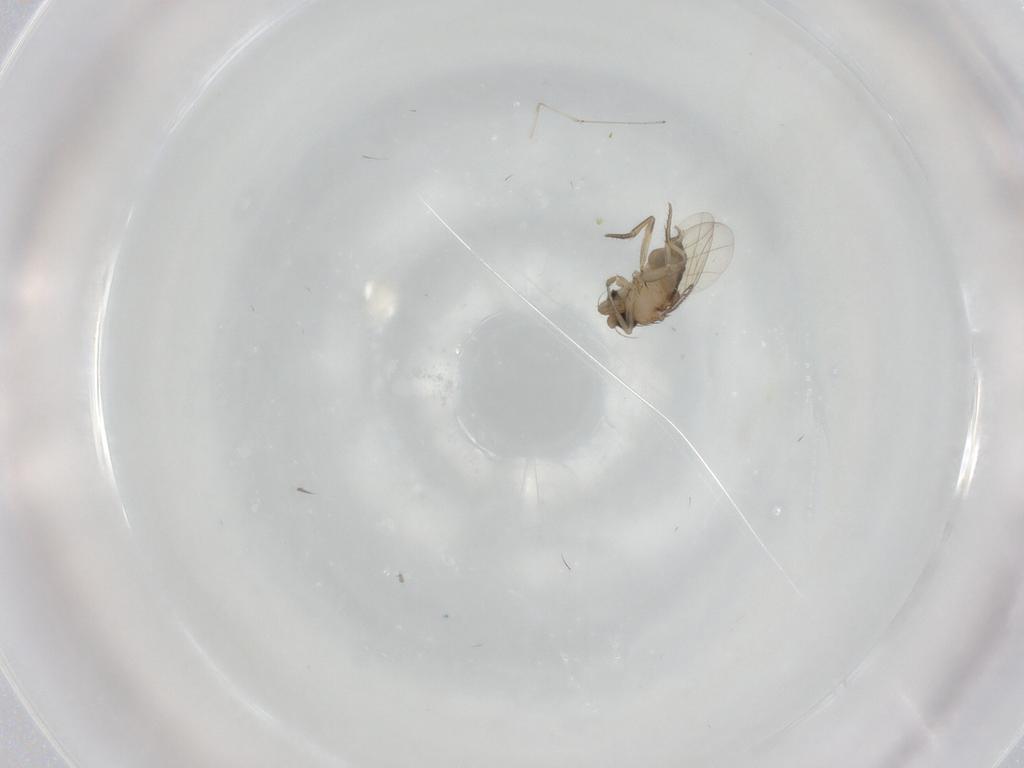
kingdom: Animalia
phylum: Arthropoda
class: Insecta
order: Diptera
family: Phoridae
